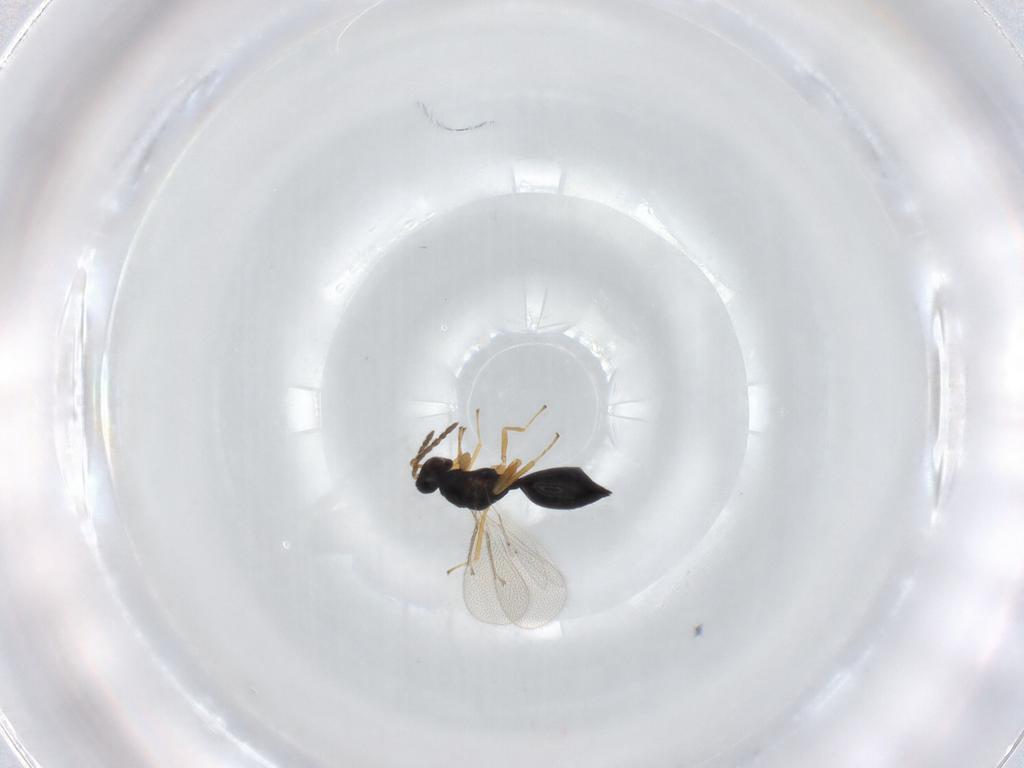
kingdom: Animalia
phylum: Arthropoda
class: Insecta
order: Hymenoptera
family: Eulophidae
